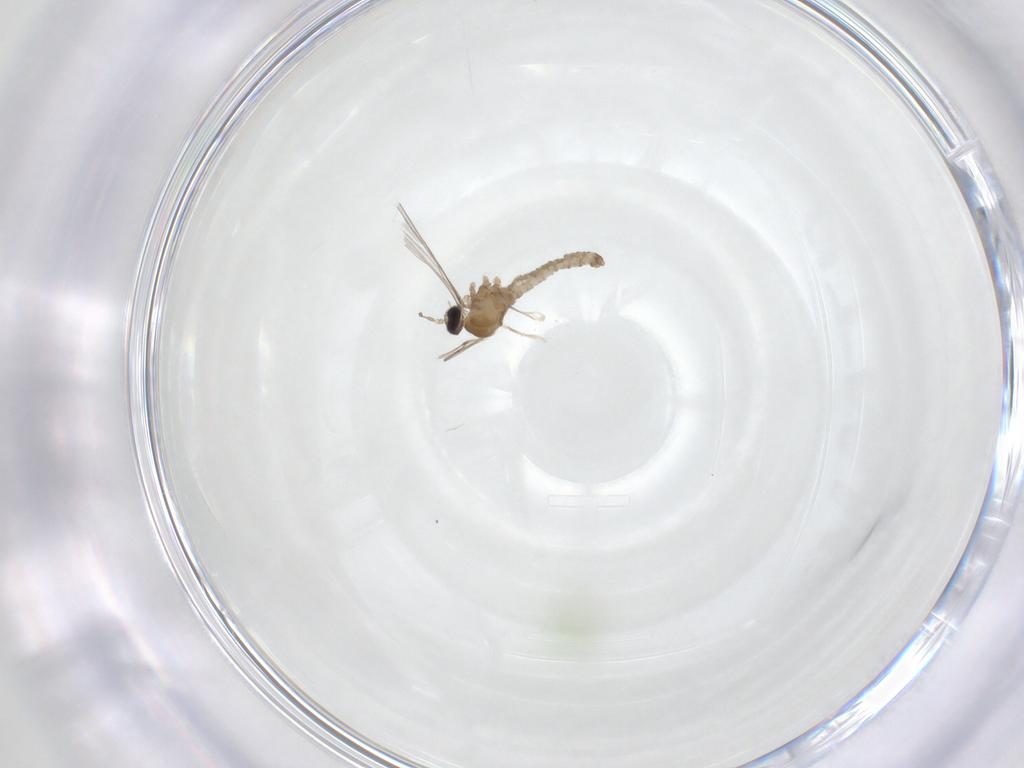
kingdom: Animalia
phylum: Arthropoda
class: Insecta
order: Diptera
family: Cecidomyiidae
